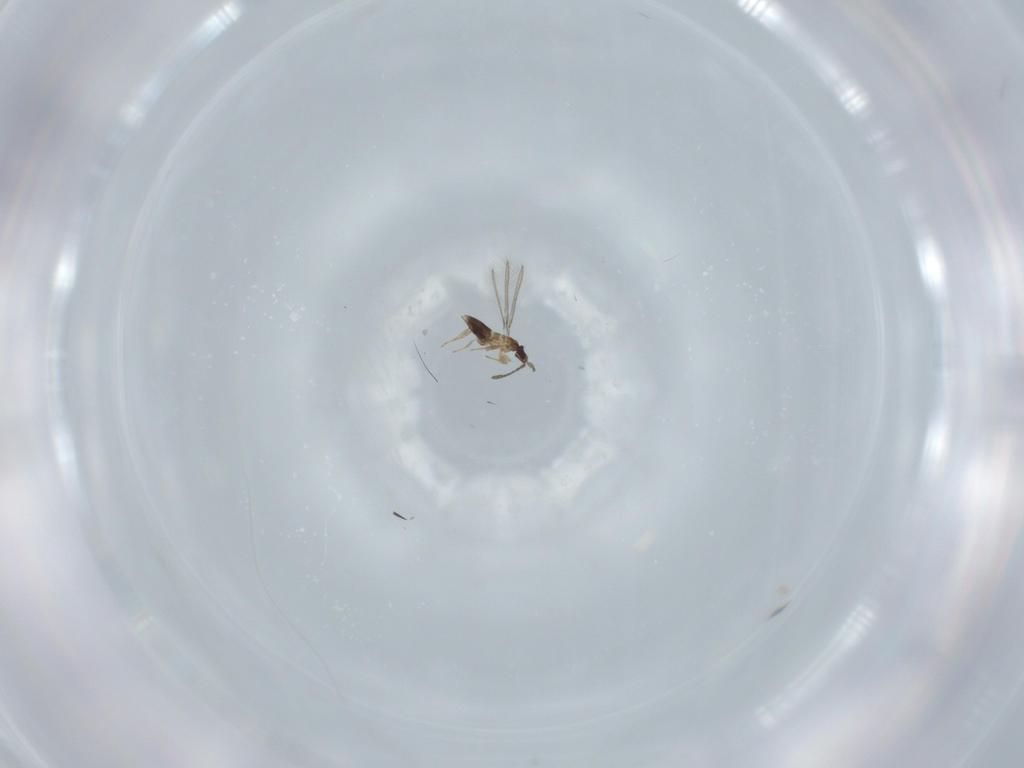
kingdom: Animalia
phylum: Arthropoda
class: Insecta
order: Hymenoptera
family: Mymaridae
